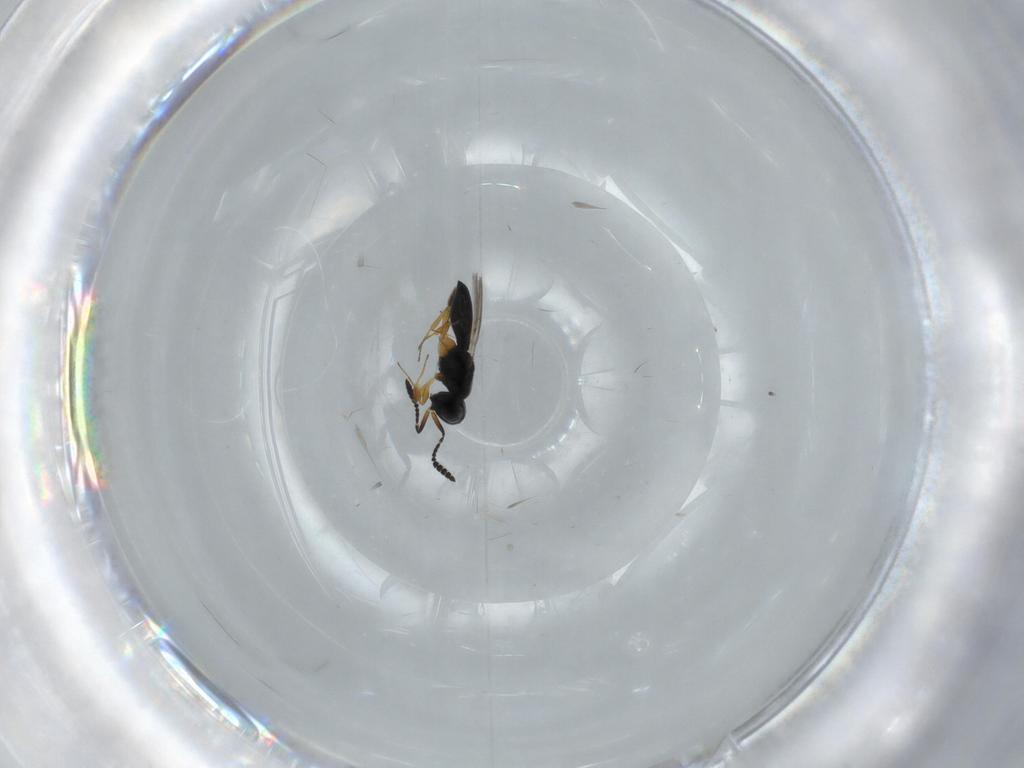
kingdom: Animalia
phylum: Arthropoda
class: Insecta
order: Hymenoptera
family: Scelionidae
